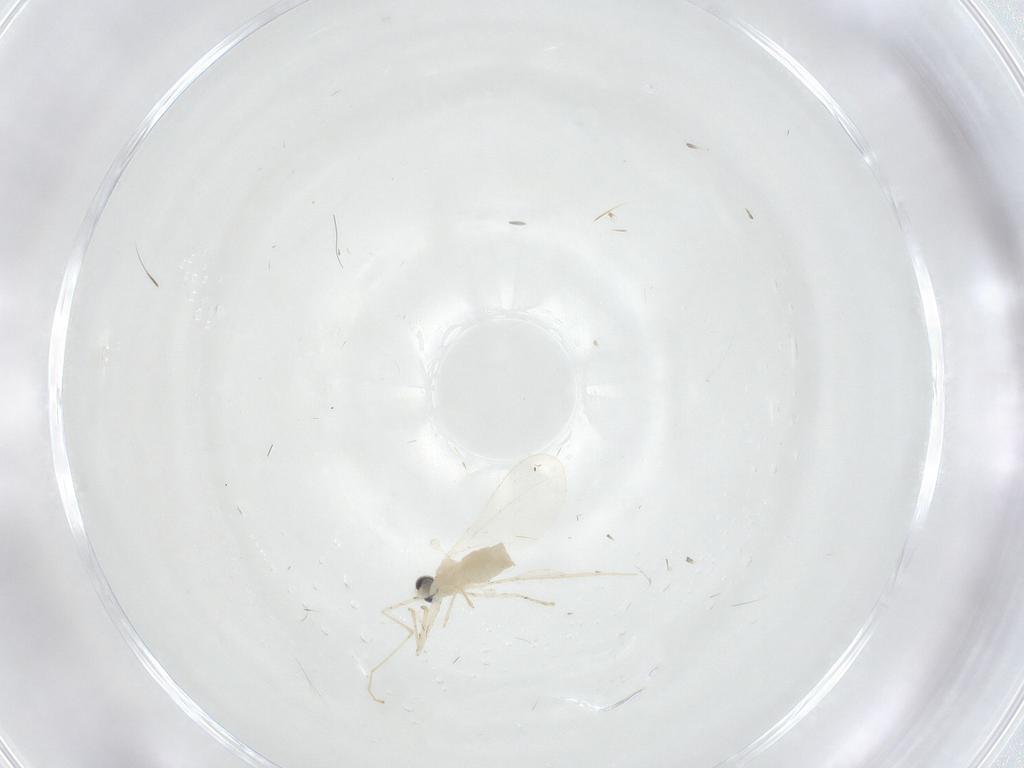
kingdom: Animalia
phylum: Arthropoda
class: Insecta
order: Diptera
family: Cecidomyiidae
